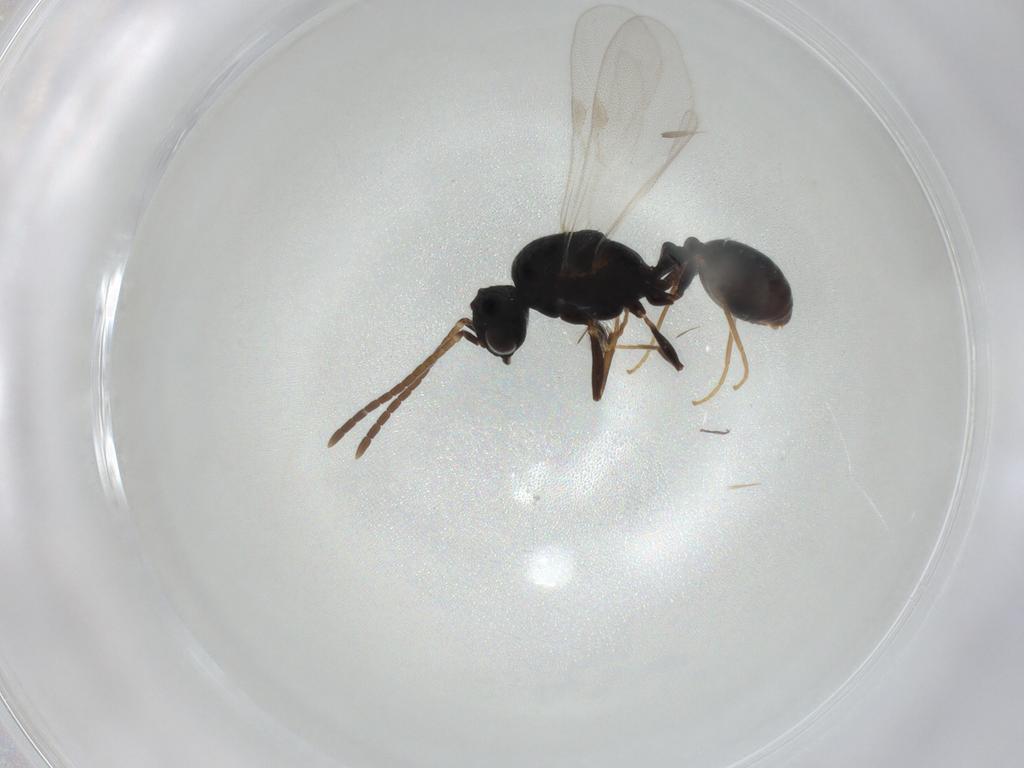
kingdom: Animalia
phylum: Arthropoda
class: Insecta
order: Hymenoptera
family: Formicidae
